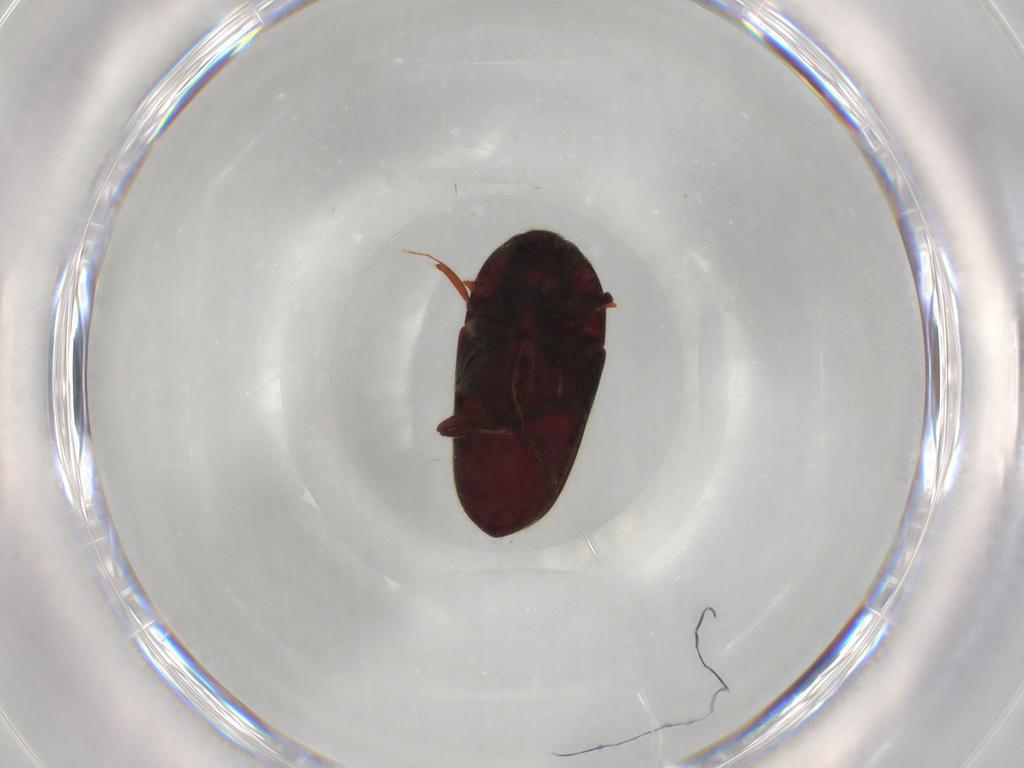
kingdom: Animalia
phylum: Arthropoda
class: Insecta
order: Coleoptera
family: Throscidae
